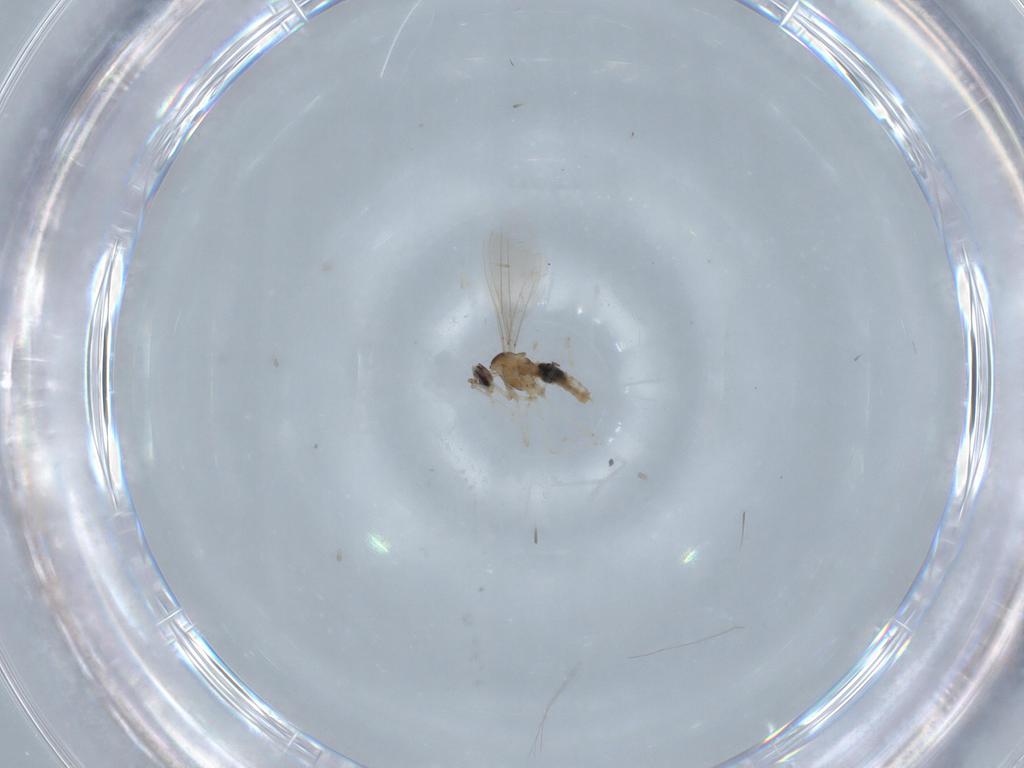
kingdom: Animalia
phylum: Arthropoda
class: Insecta
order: Diptera
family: Cecidomyiidae
